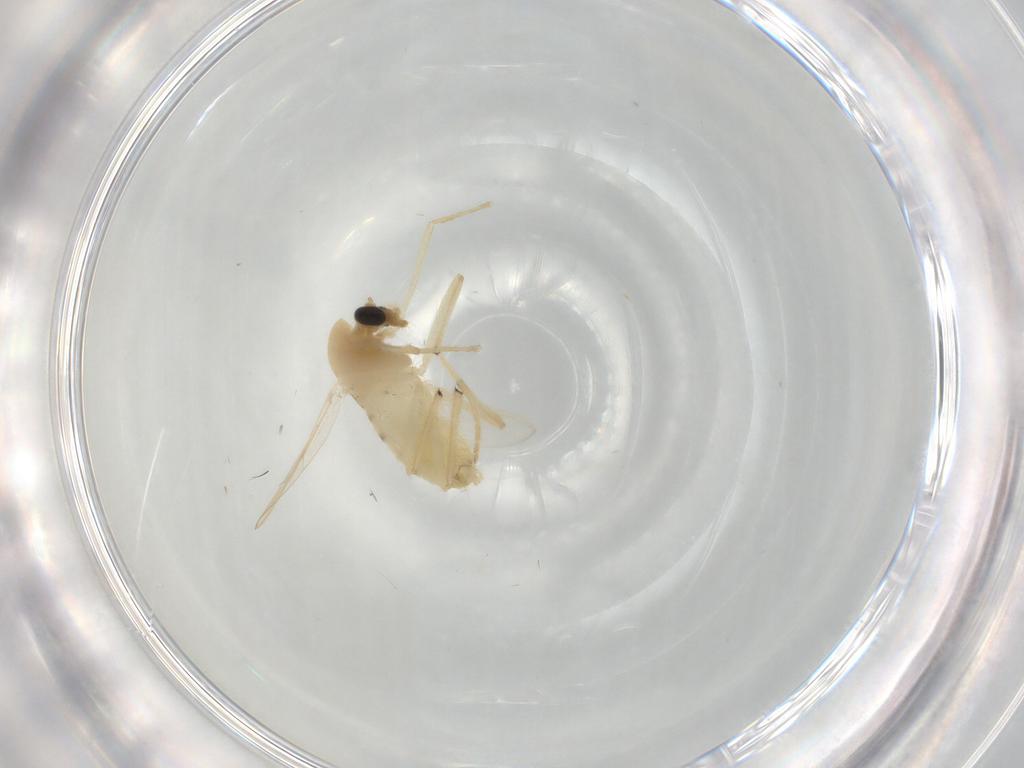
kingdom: Animalia
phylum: Arthropoda
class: Insecta
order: Diptera
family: Chironomidae
